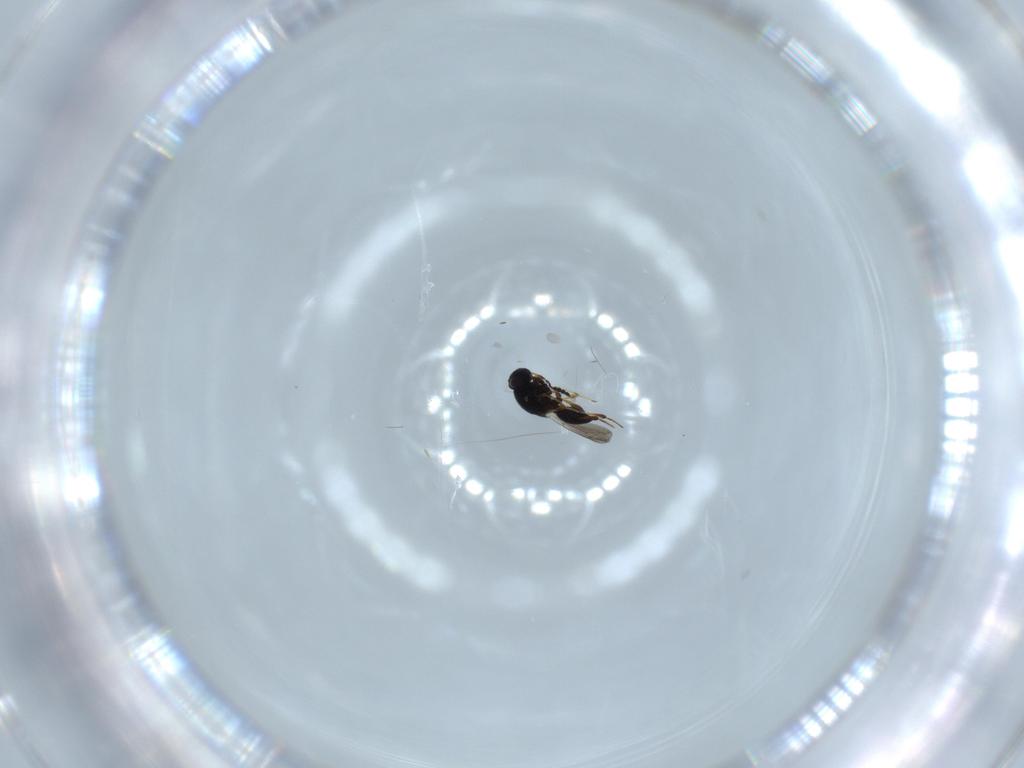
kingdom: Animalia
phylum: Arthropoda
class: Insecta
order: Hymenoptera
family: Platygastridae
